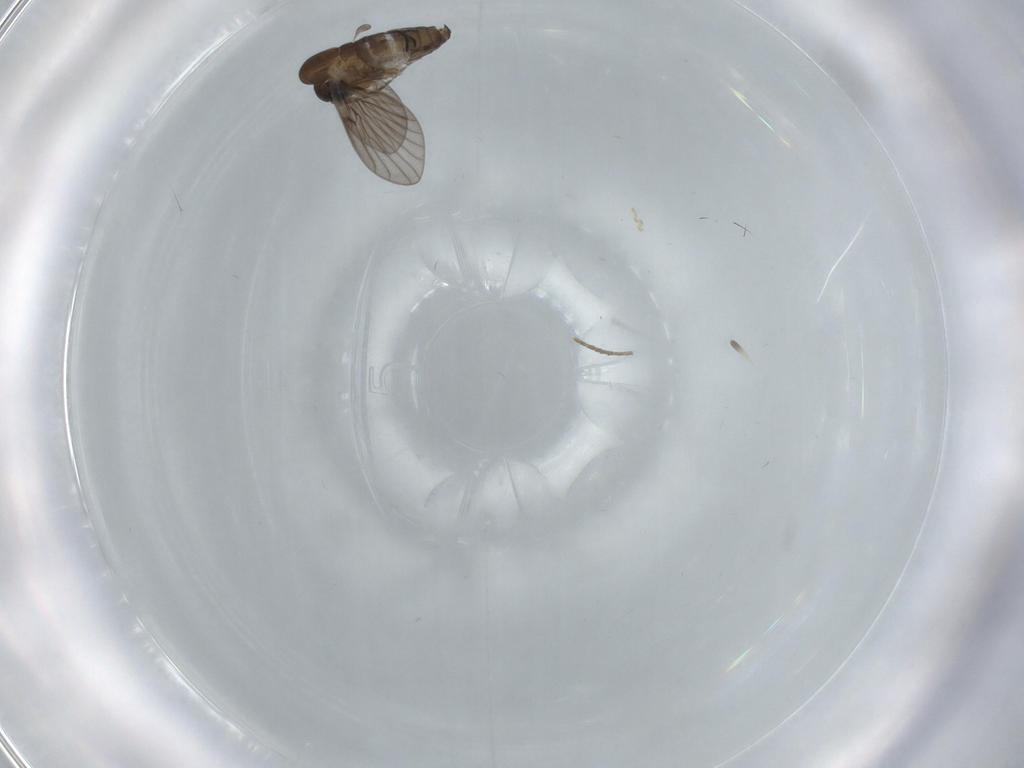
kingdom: Animalia
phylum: Arthropoda
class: Insecta
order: Diptera
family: Psychodidae
